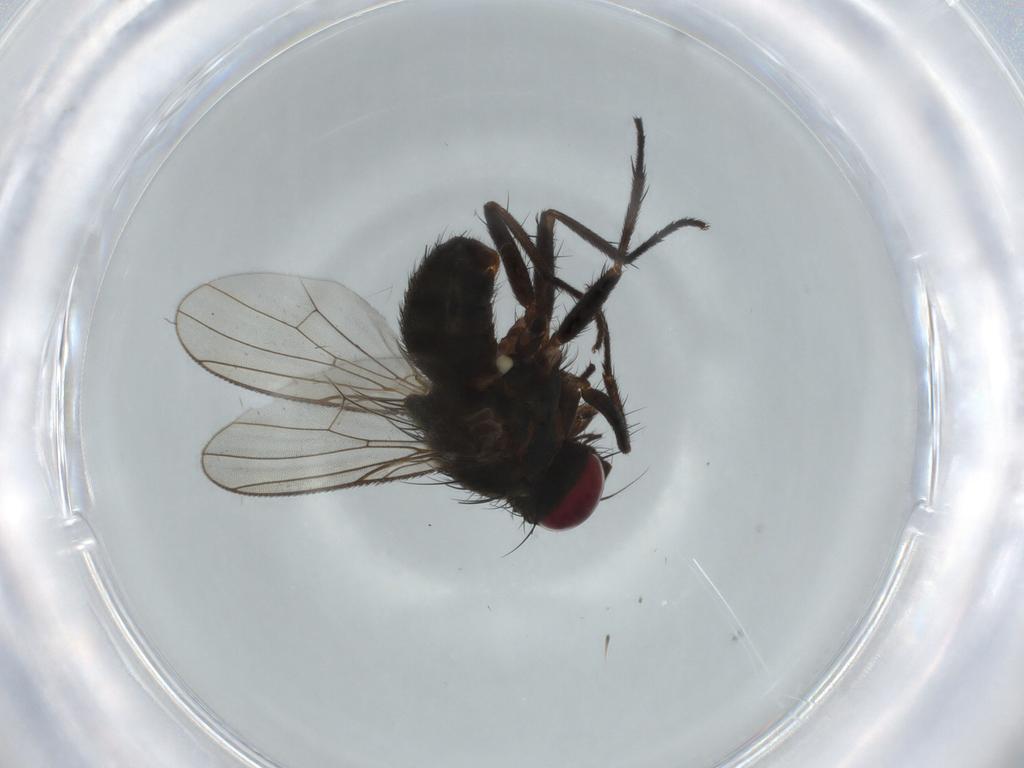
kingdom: Animalia
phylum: Arthropoda
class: Insecta
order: Diptera
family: Muscidae
